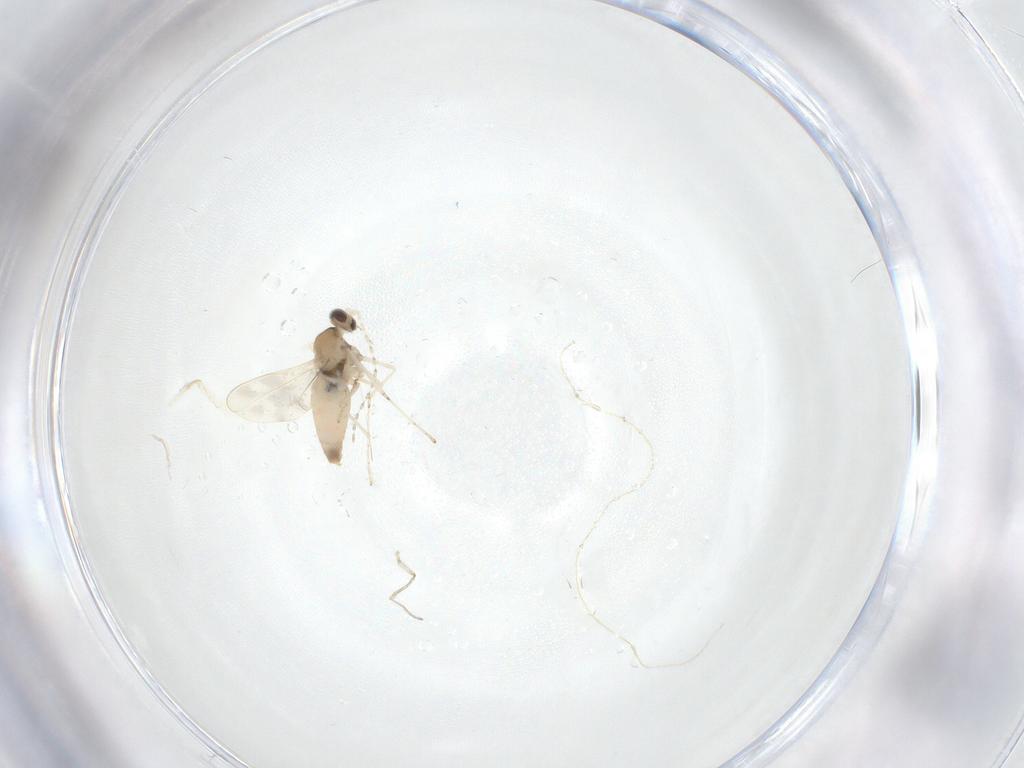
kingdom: Animalia
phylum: Arthropoda
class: Insecta
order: Diptera
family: Cecidomyiidae
